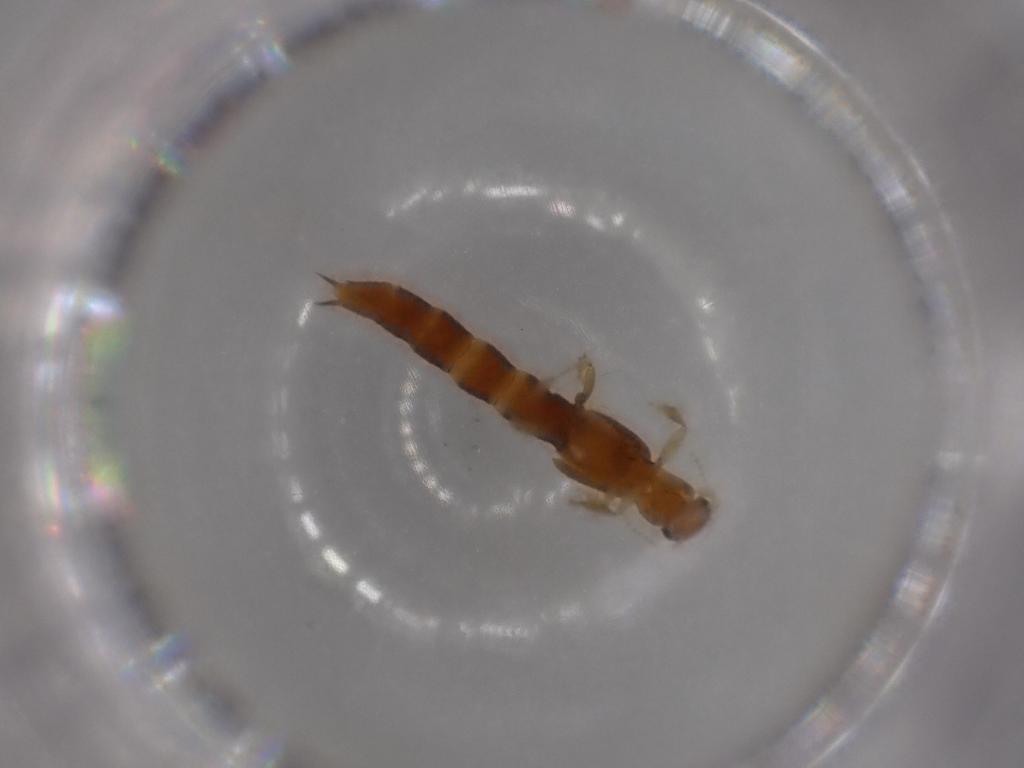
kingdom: Animalia
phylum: Arthropoda
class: Insecta
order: Coleoptera
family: Staphylinidae
